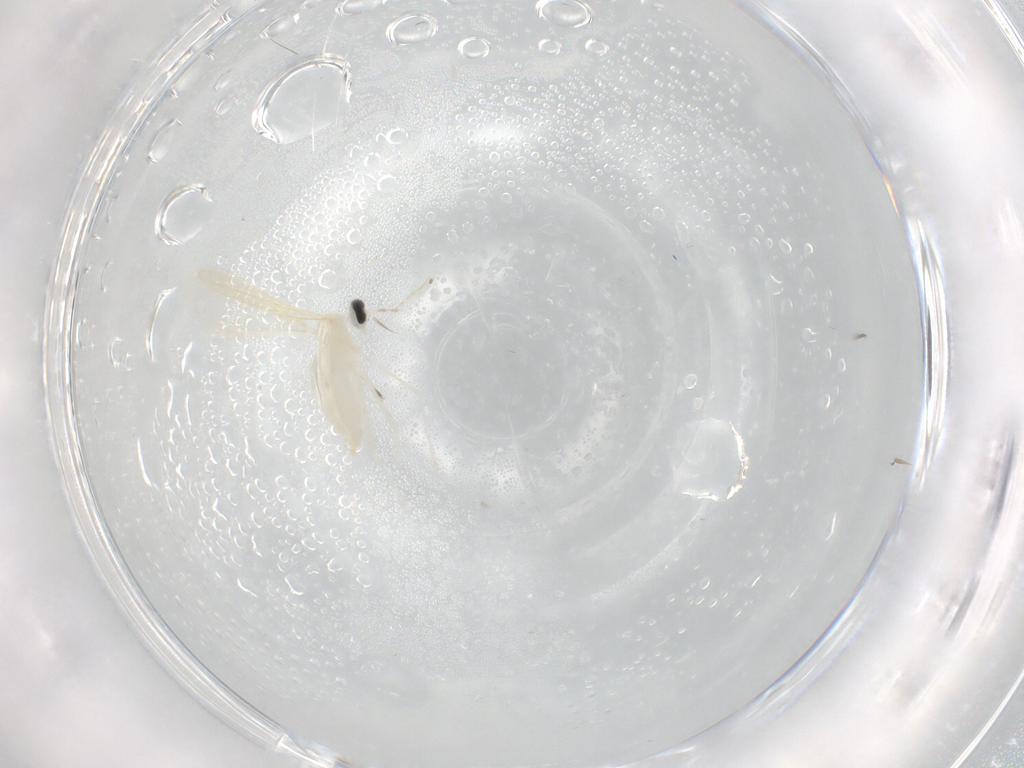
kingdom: Animalia
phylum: Arthropoda
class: Insecta
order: Diptera
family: Cecidomyiidae
